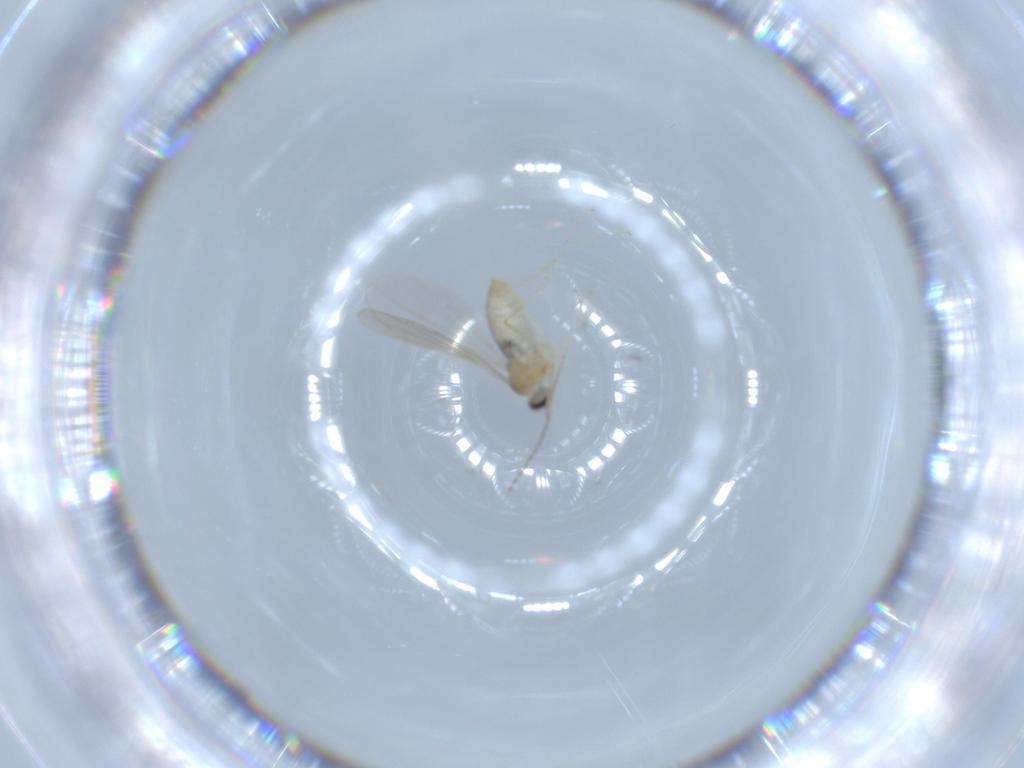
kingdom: Animalia
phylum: Arthropoda
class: Insecta
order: Diptera
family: Cecidomyiidae
